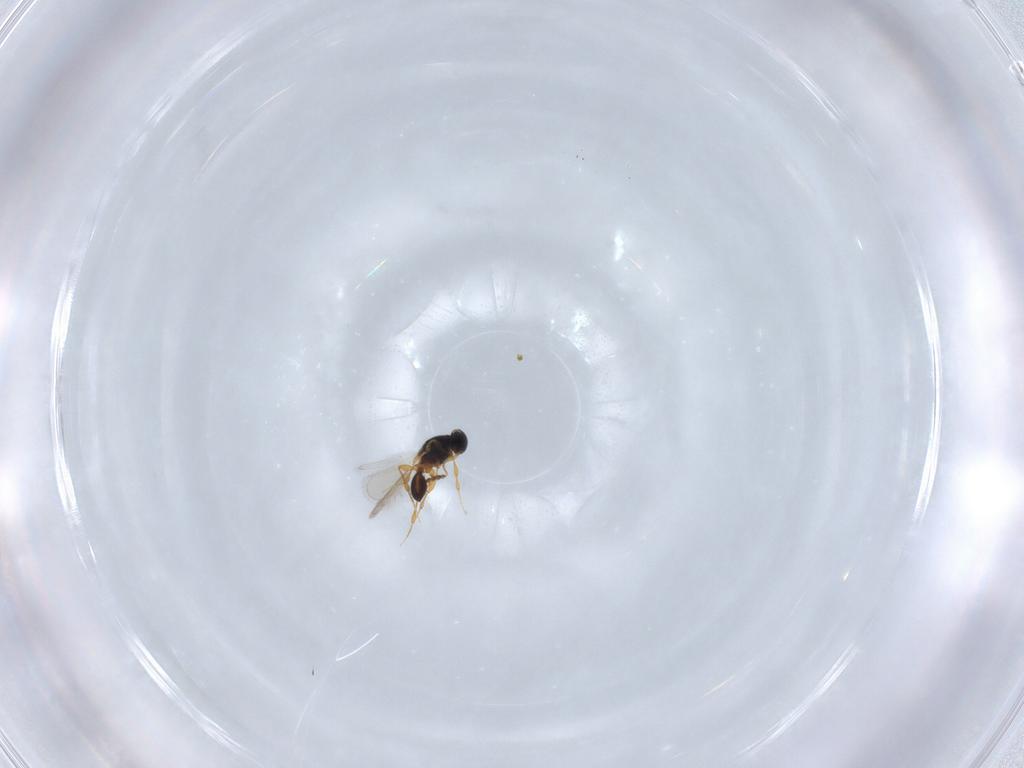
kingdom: Animalia
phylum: Arthropoda
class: Insecta
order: Hymenoptera
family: Platygastridae
